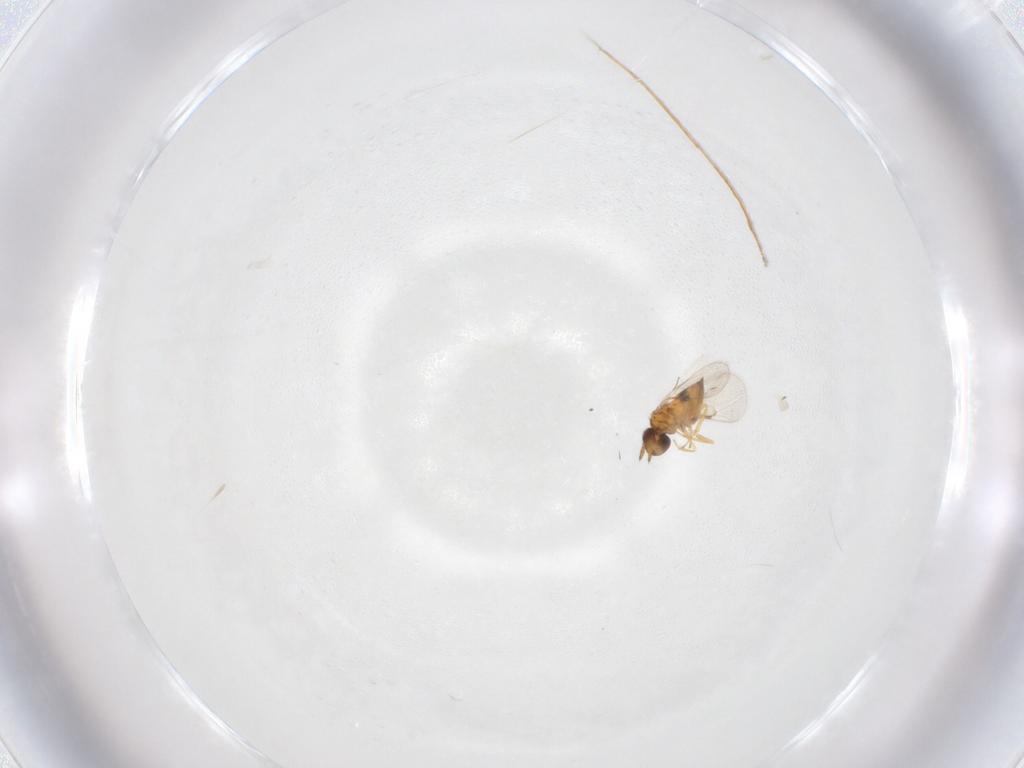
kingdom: Animalia
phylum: Arthropoda
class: Insecta
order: Hymenoptera
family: Trichogrammatidae
